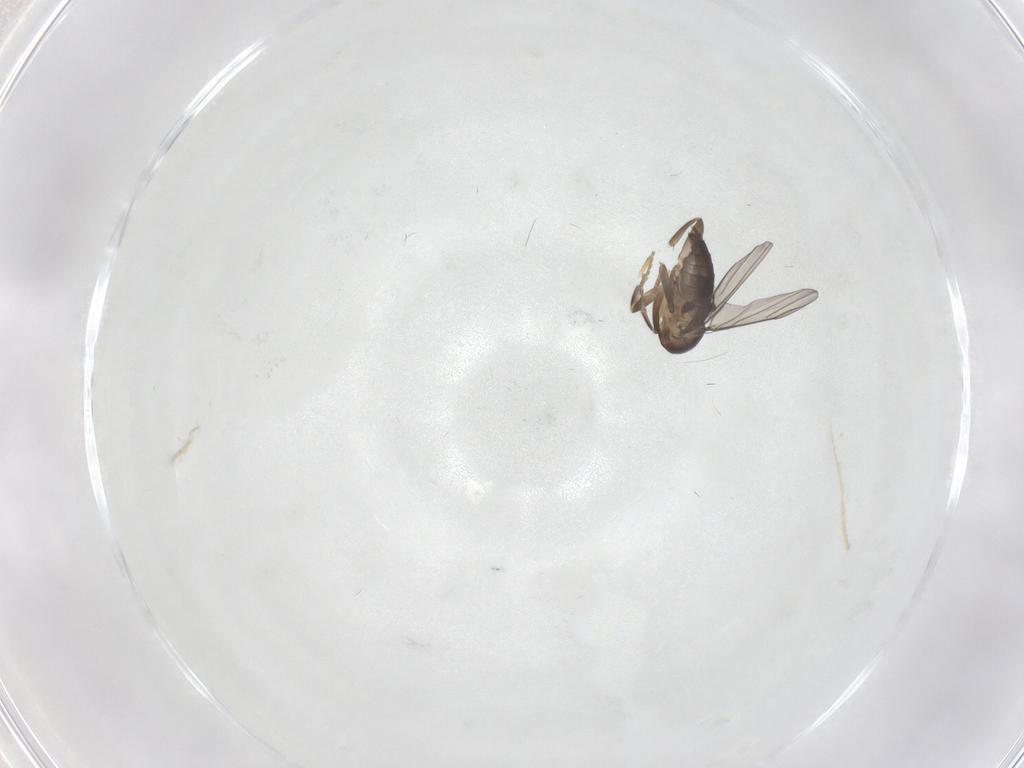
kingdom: Animalia
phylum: Arthropoda
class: Insecta
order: Diptera
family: Phoridae
